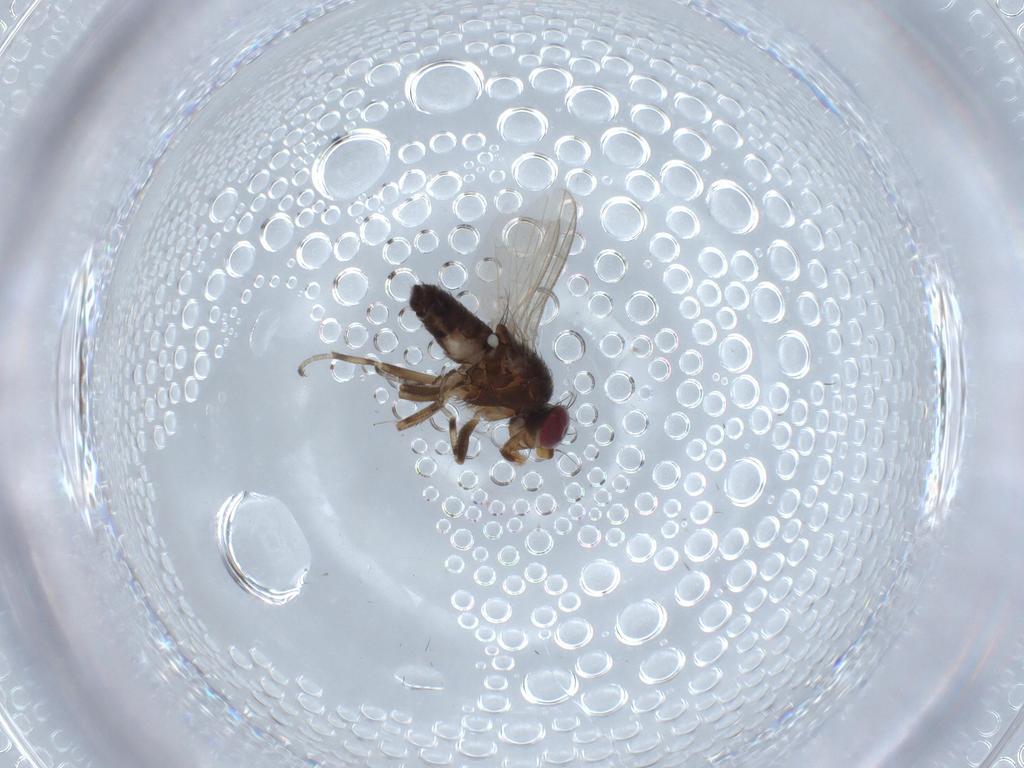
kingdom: Animalia
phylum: Arthropoda
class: Insecta
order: Diptera
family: Heleomyzidae
